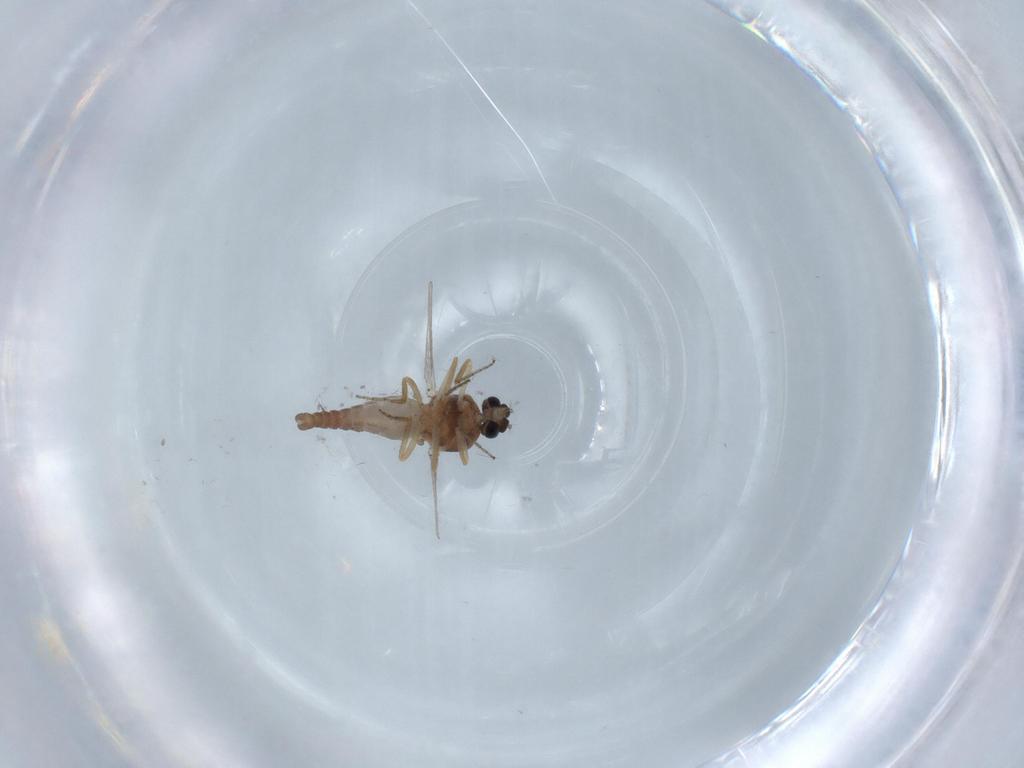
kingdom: Animalia
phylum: Arthropoda
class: Insecta
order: Diptera
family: Ceratopogonidae
